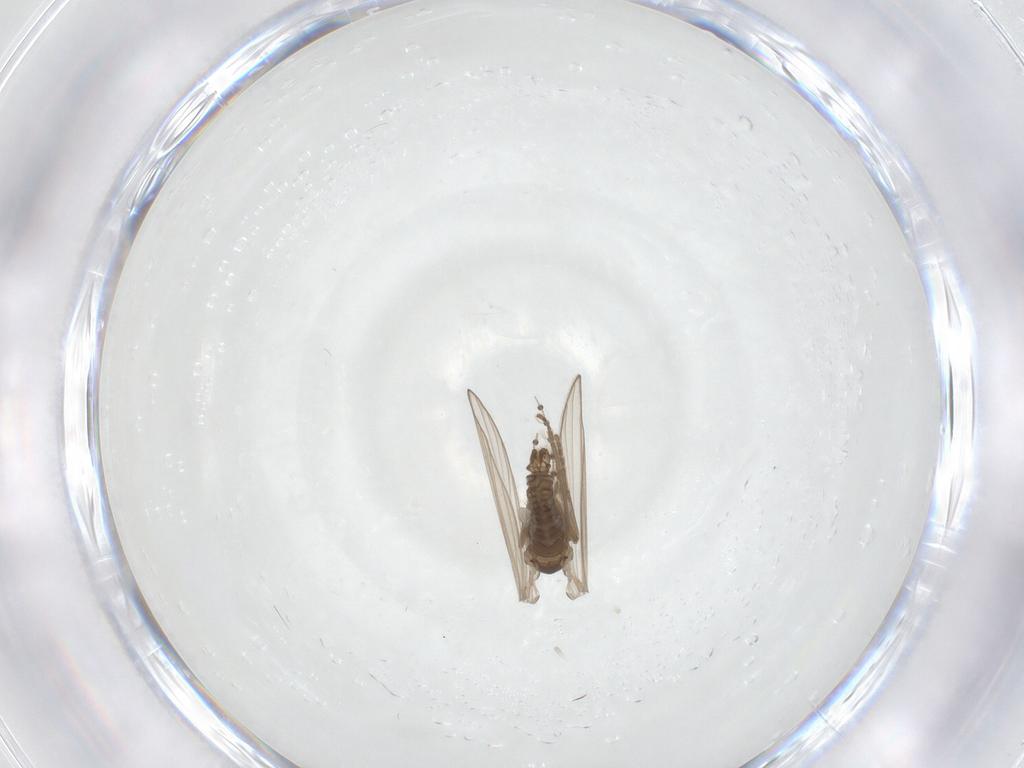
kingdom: Animalia
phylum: Arthropoda
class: Insecta
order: Diptera
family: Psychodidae
